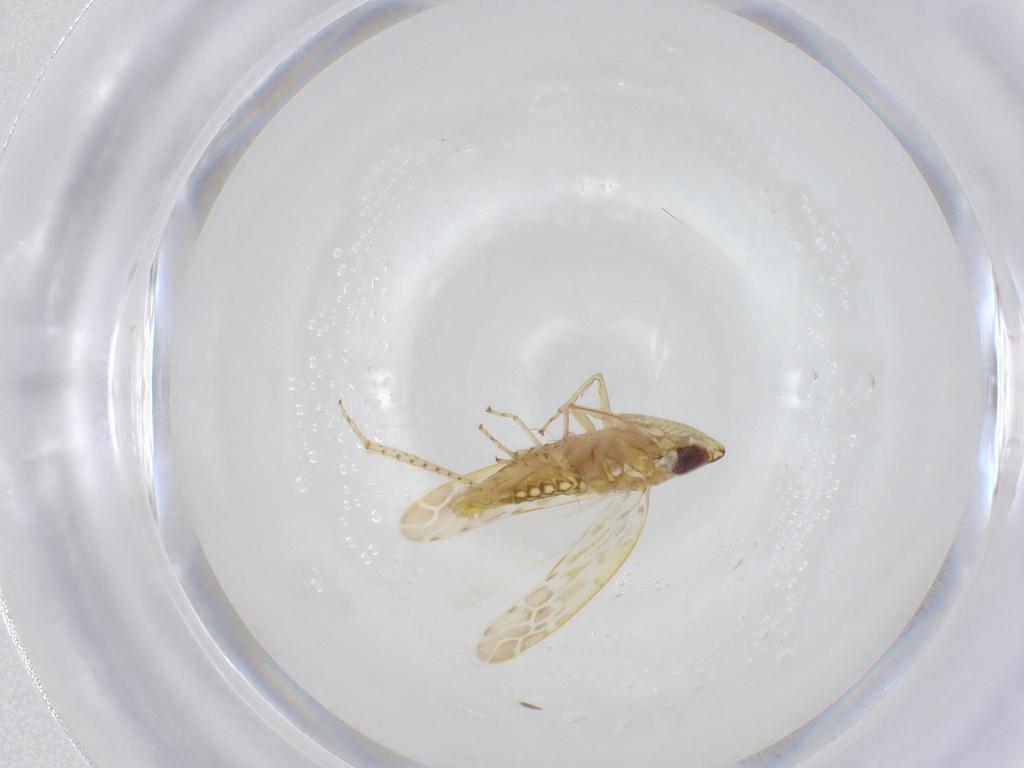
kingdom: Animalia
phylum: Arthropoda
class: Insecta
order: Hemiptera
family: Cicadellidae
